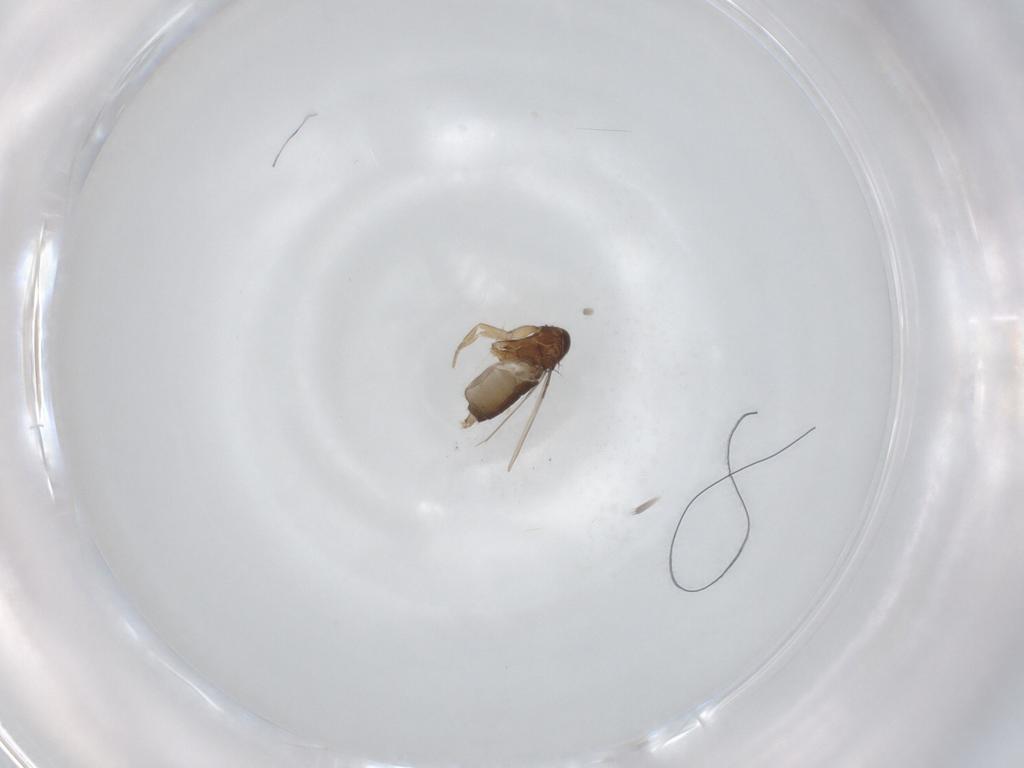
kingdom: Animalia
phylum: Arthropoda
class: Insecta
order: Diptera
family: Phoridae
